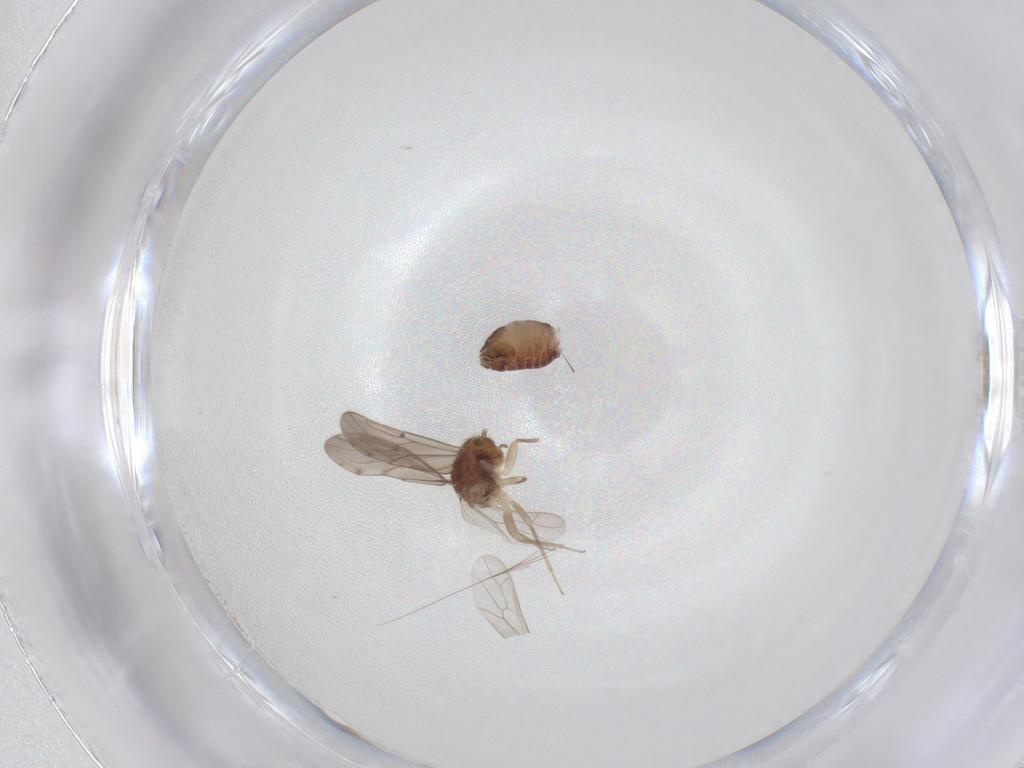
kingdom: Animalia
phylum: Arthropoda
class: Insecta
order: Psocodea
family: Ectopsocidae
